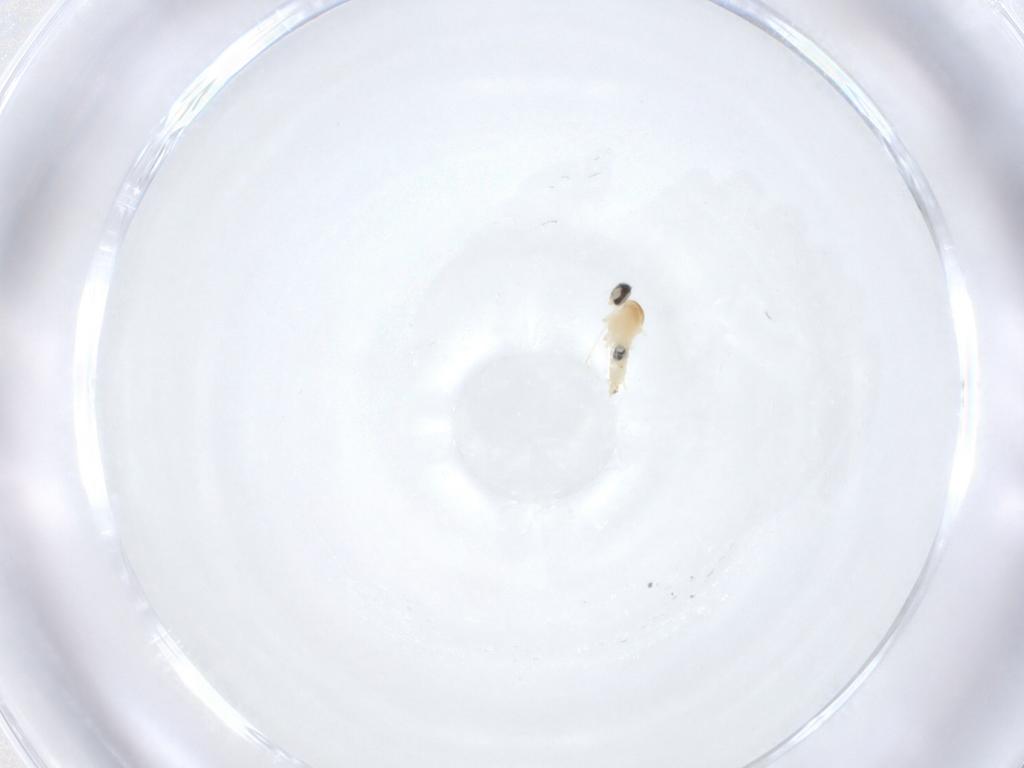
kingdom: Animalia
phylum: Arthropoda
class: Insecta
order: Diptera
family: Cecidomyiidae
